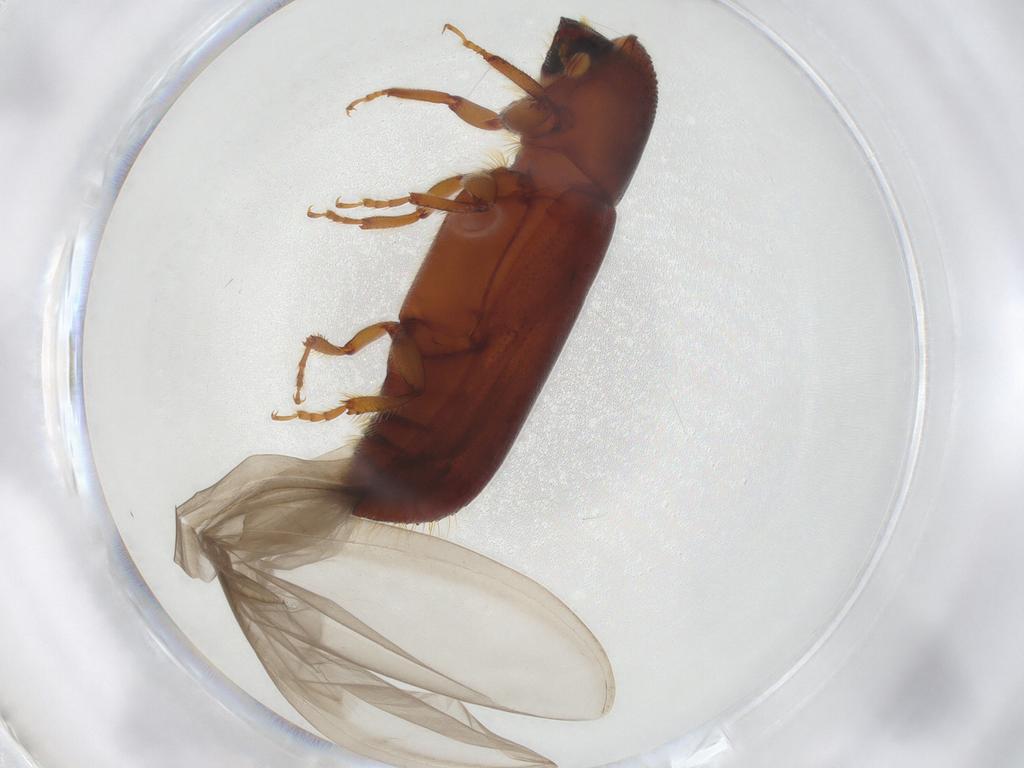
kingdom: Animalia
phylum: Arthropoda
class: Insecta
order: Coleoptera
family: Curculionidae
